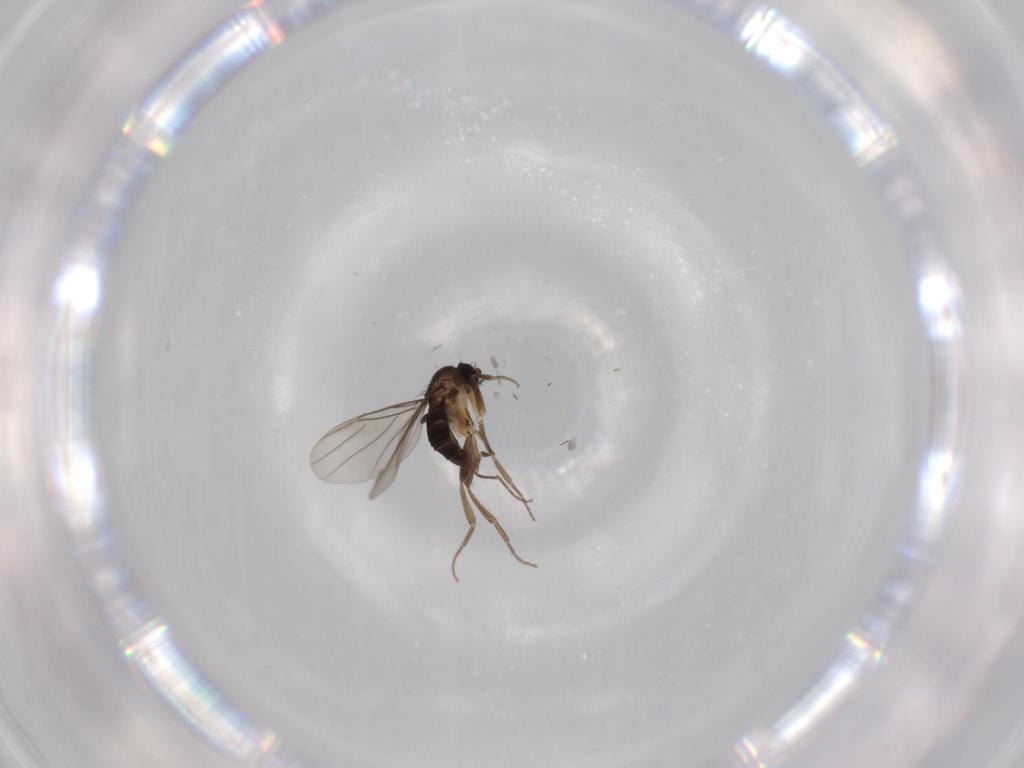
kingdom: Animalia
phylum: Arthropoda
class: Insecta
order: Diptera
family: Phoridae
